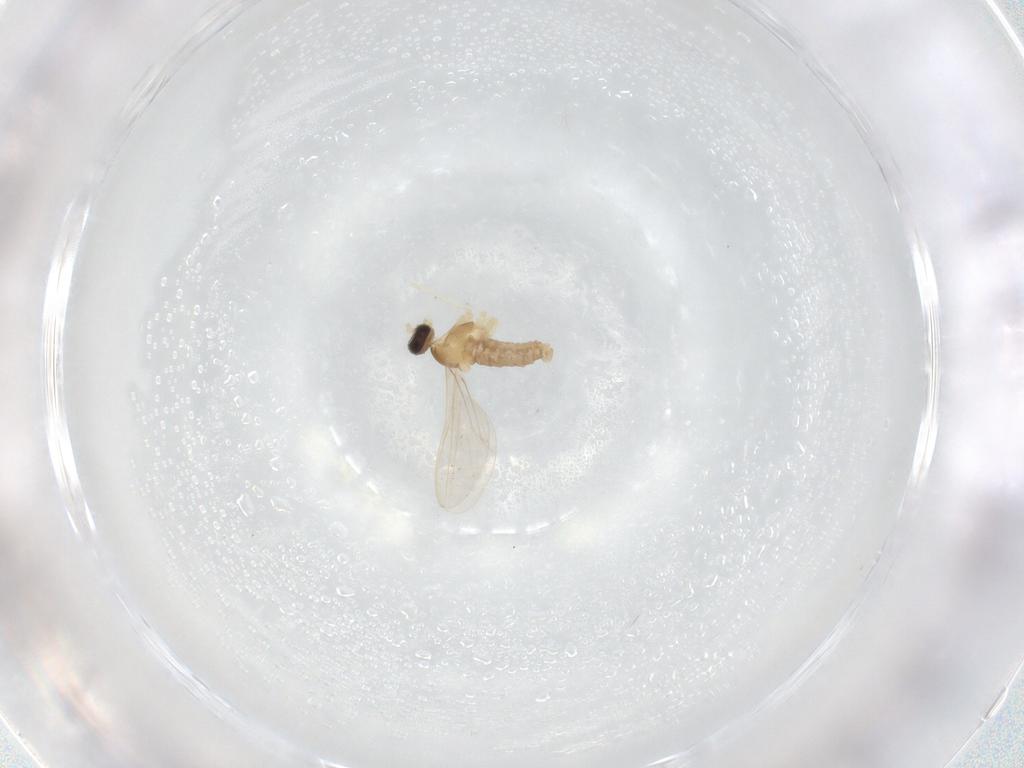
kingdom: Animalia
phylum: Arthropoda
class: Insecta
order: Diptera
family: Cecidomyiidae
